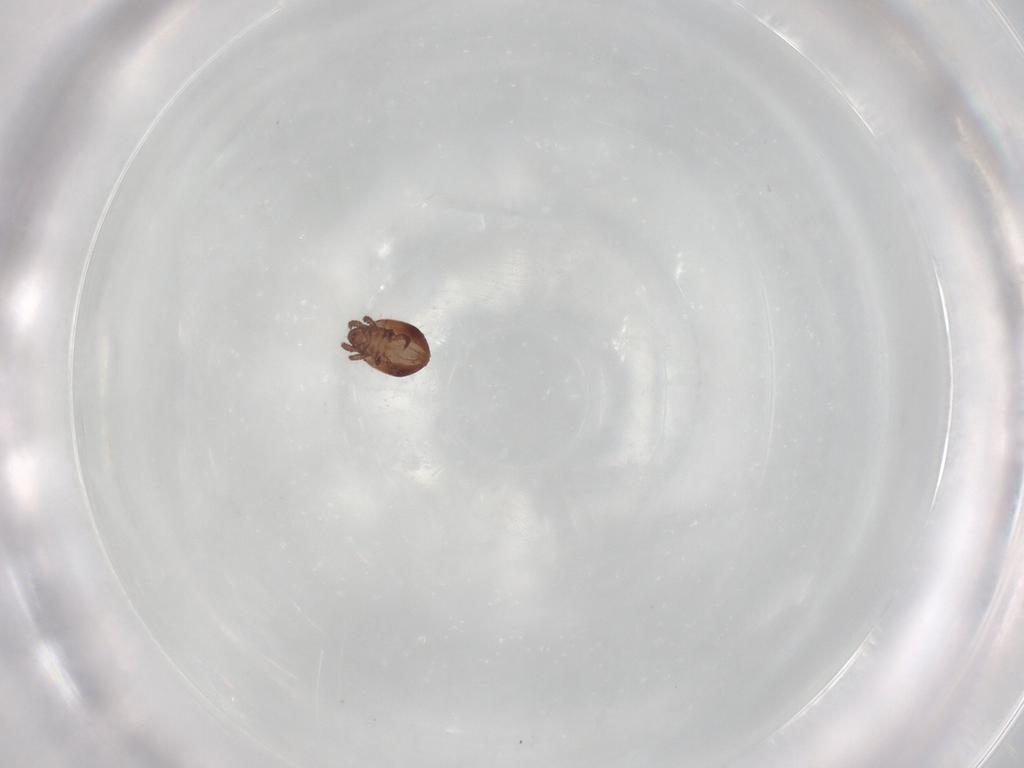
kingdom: Animalia
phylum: Arthropoda
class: Arachnida
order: Sarcoptiformes
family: Trhypochthoniidae
